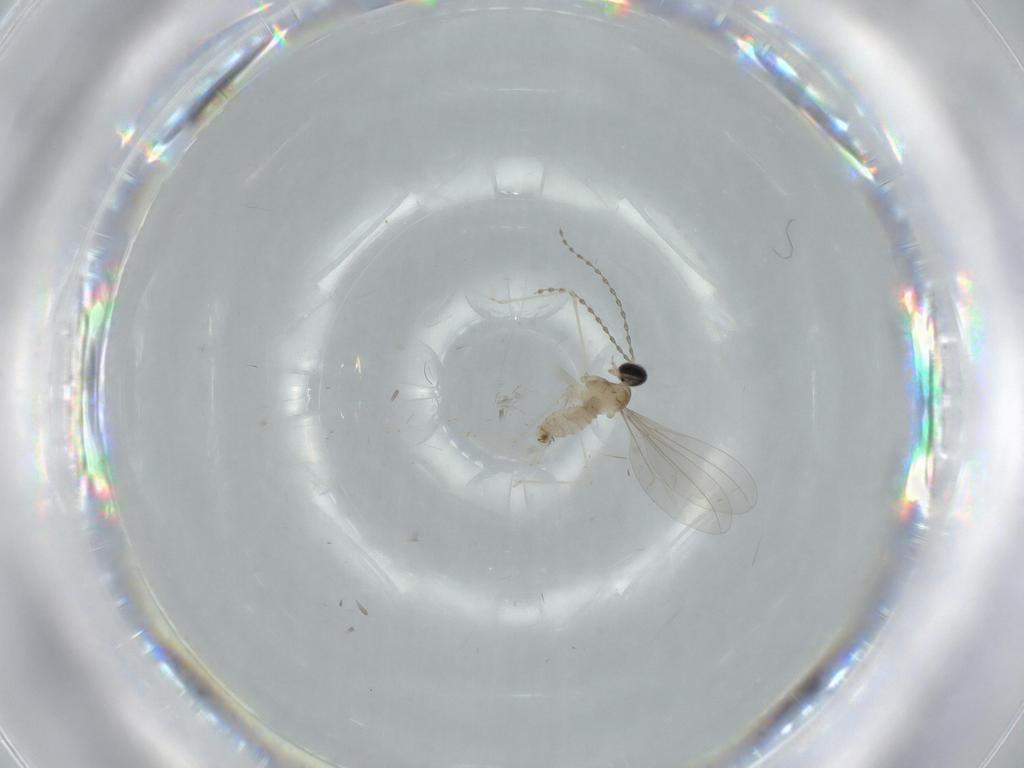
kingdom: Animalia
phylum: Arthropoda
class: Insecta
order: Diptera
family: Cecidomyiidae
